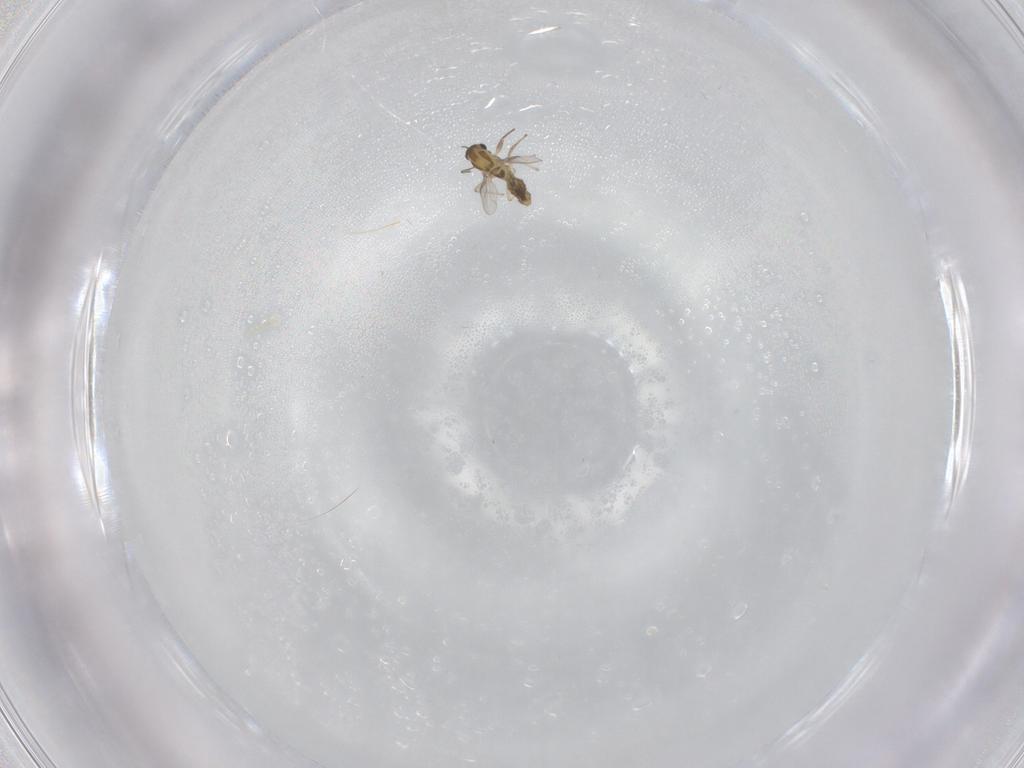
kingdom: Animalia
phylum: Arthropoda
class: Insecta
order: Diptera
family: Chironomidae
